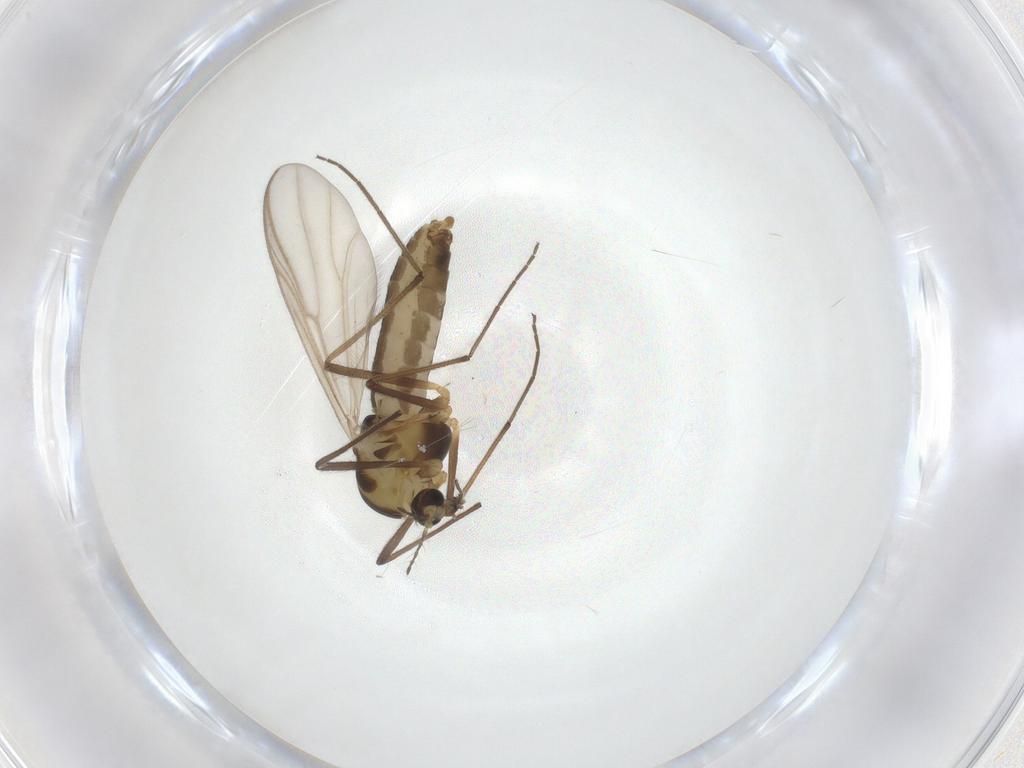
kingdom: Animalia
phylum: Arthropoda
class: Insecta
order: Diptera
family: Chironomidae
